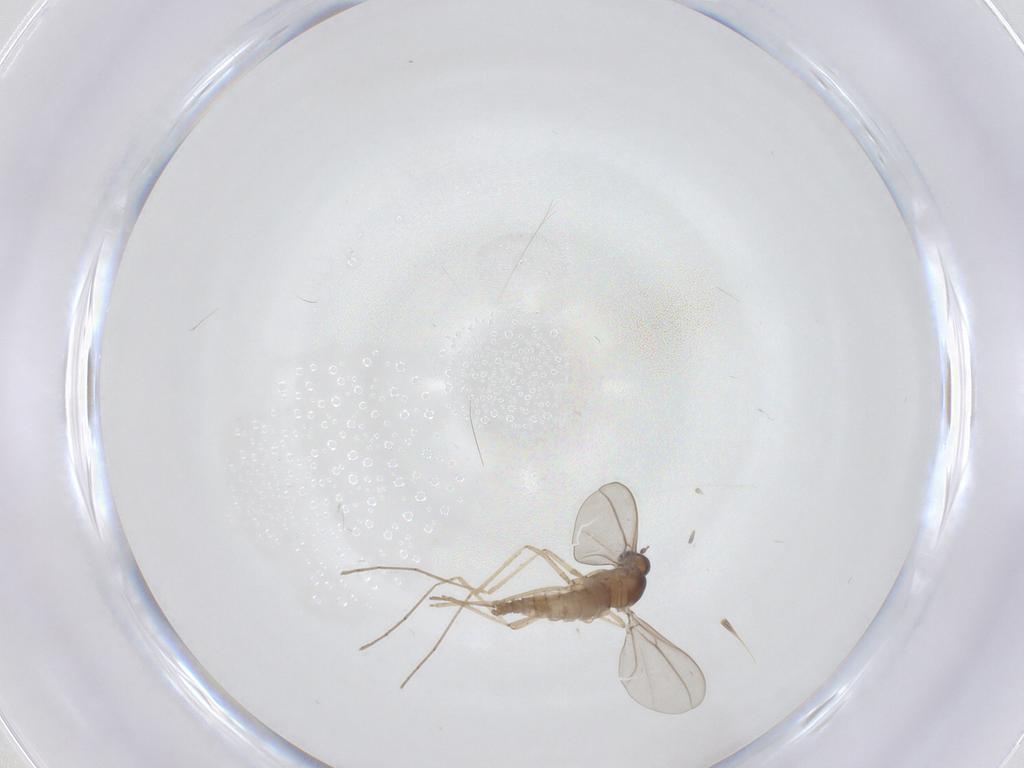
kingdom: Animalia
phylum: Arthropoda
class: Insecta
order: Diptera
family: Cecidomyiidae
